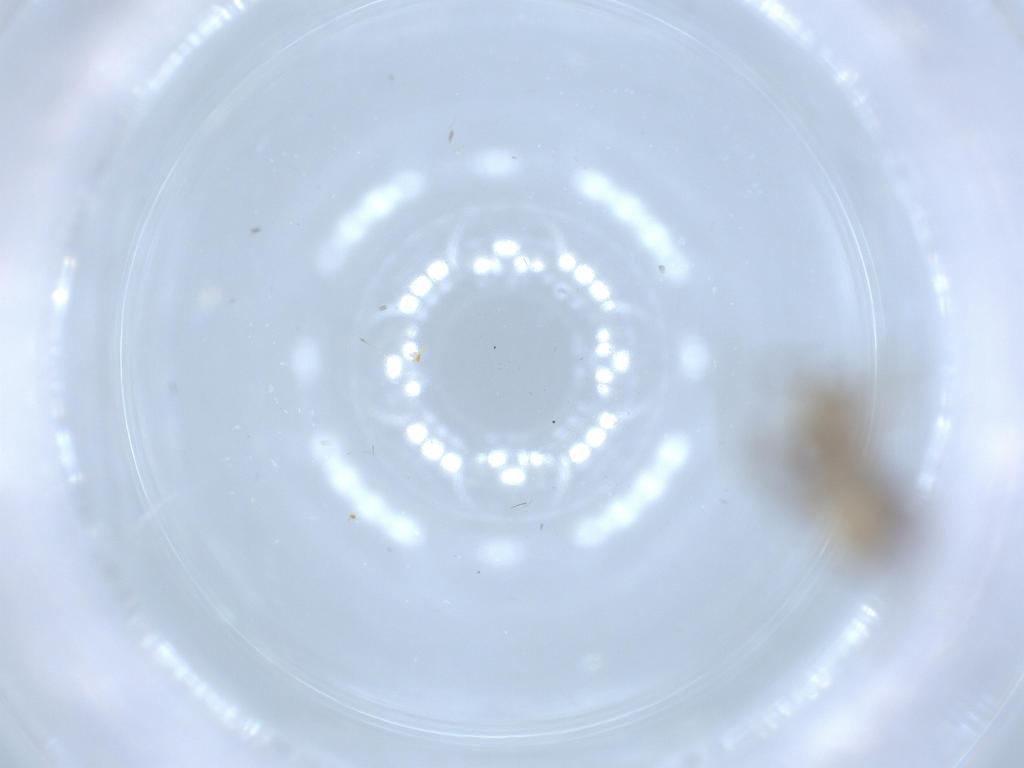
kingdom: Animalia
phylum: Arthropoda
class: Insecta
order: Psocodea
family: Cladiopsocidae
